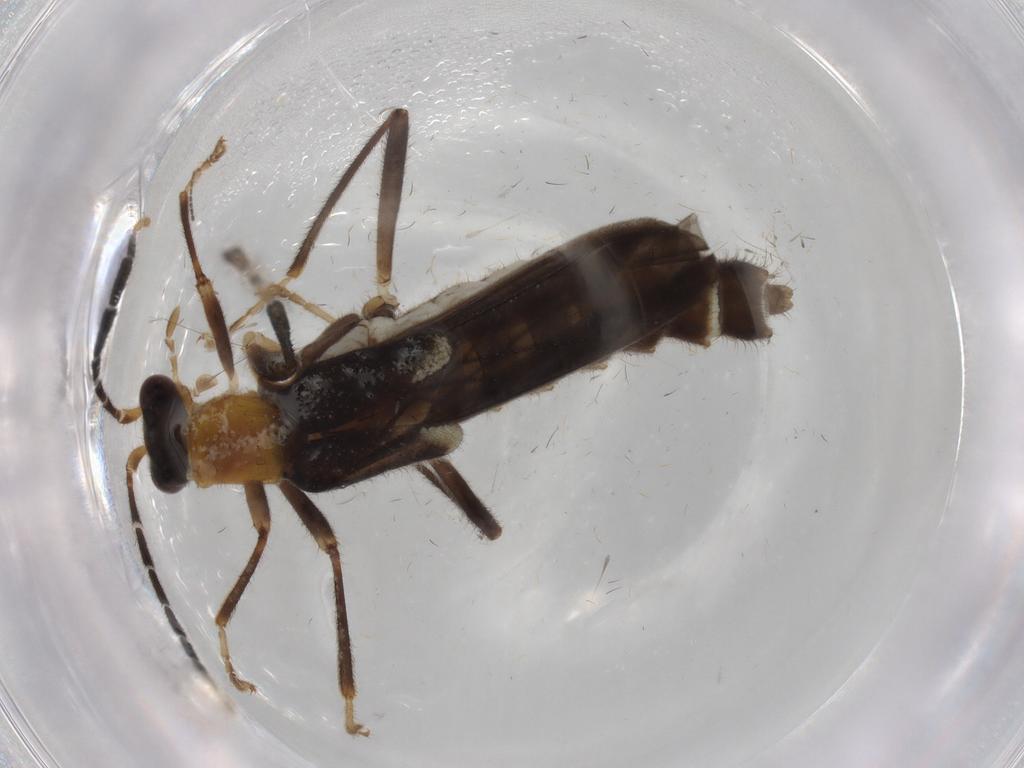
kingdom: Animalia
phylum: Arthropoda
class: Insecta
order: Coleoptera
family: Cantharidae
